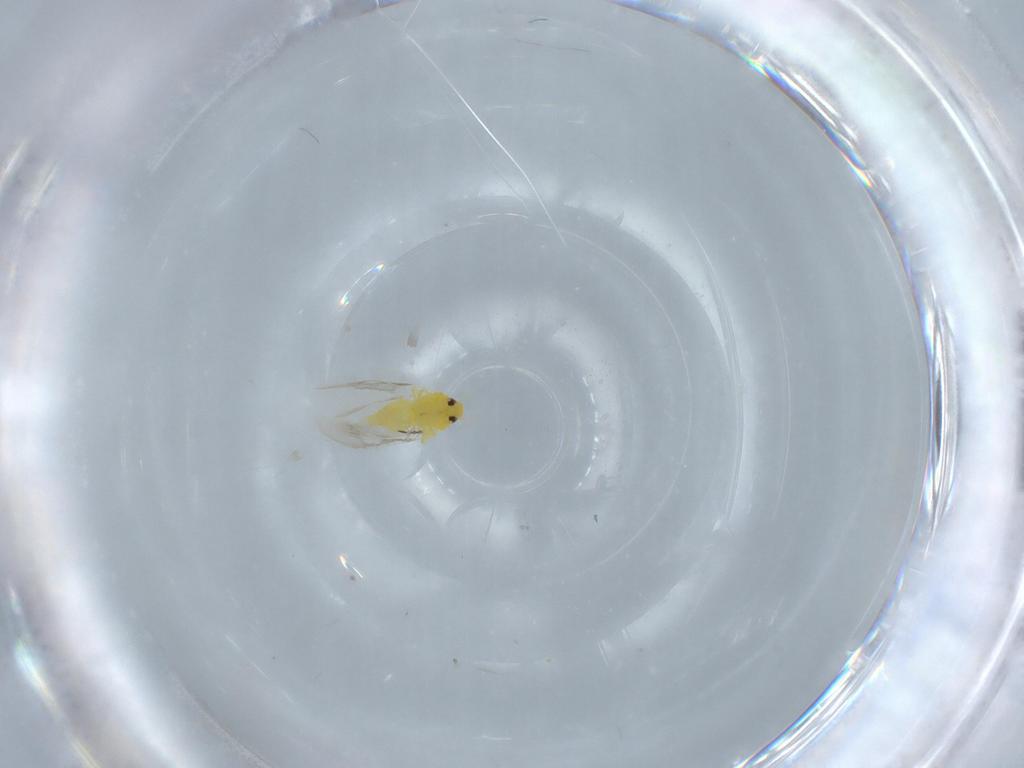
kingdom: Animalia
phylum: Arthropoda
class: Insecta
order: Hemiptera
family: Aleyrodidae
